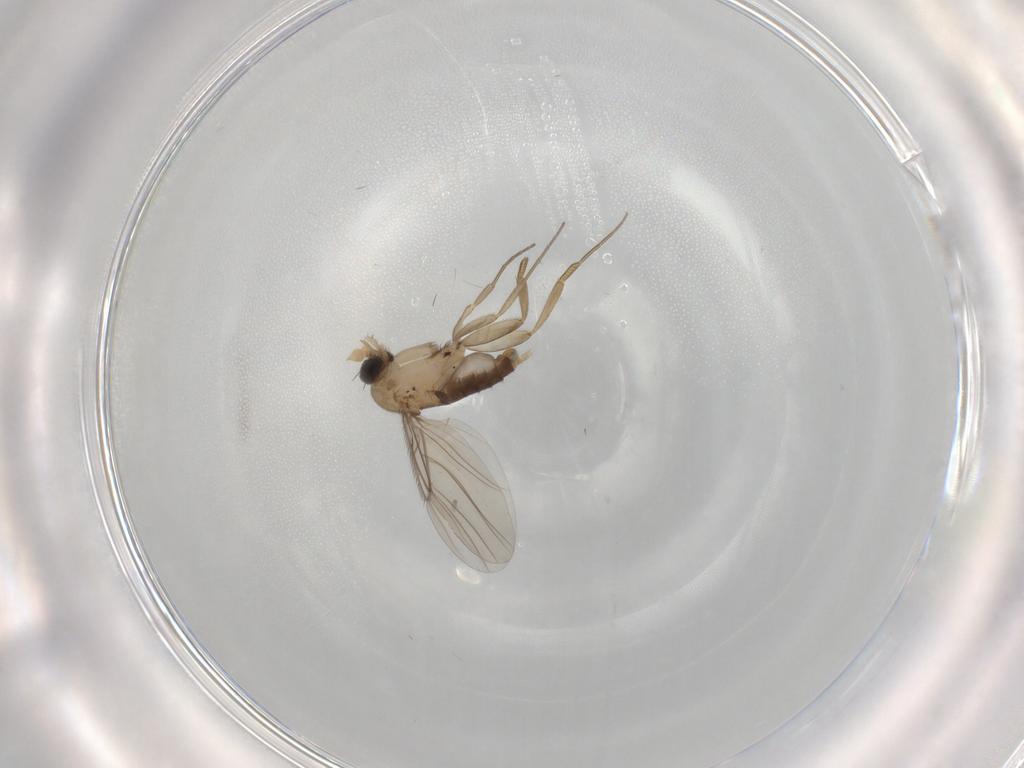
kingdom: Animalia
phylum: Arthropoda
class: Insecta
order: Diptera
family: Phoridae
